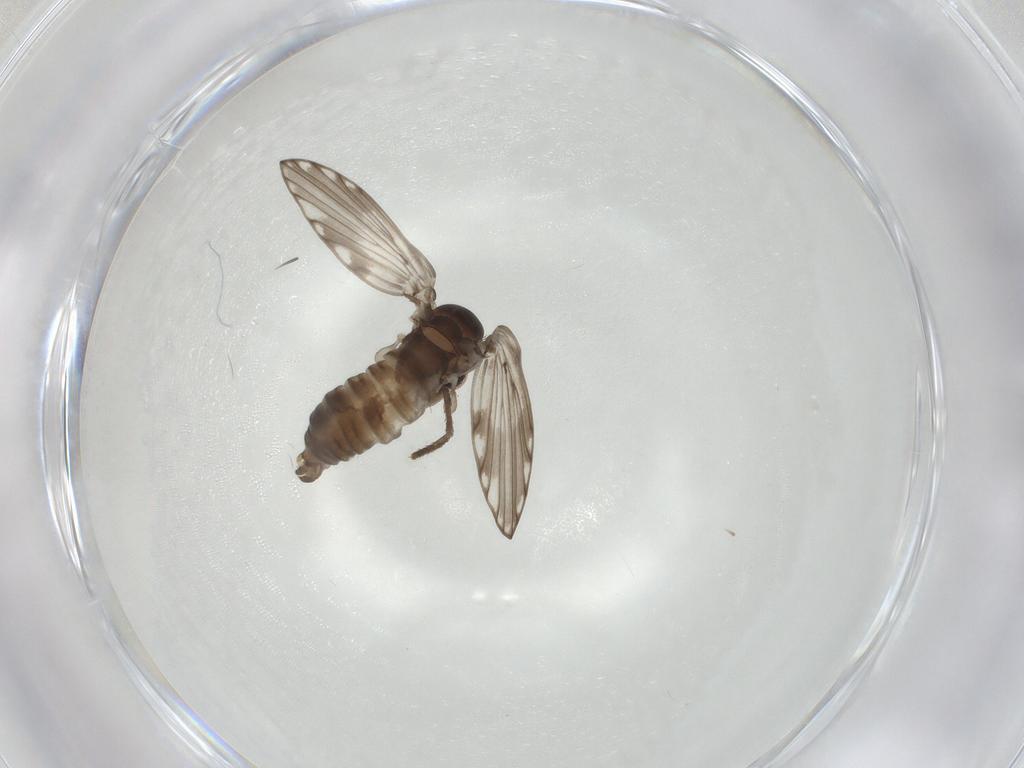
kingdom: Animalia
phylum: Arthropoda
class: Insecta
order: Diptera
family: Psychodidae
